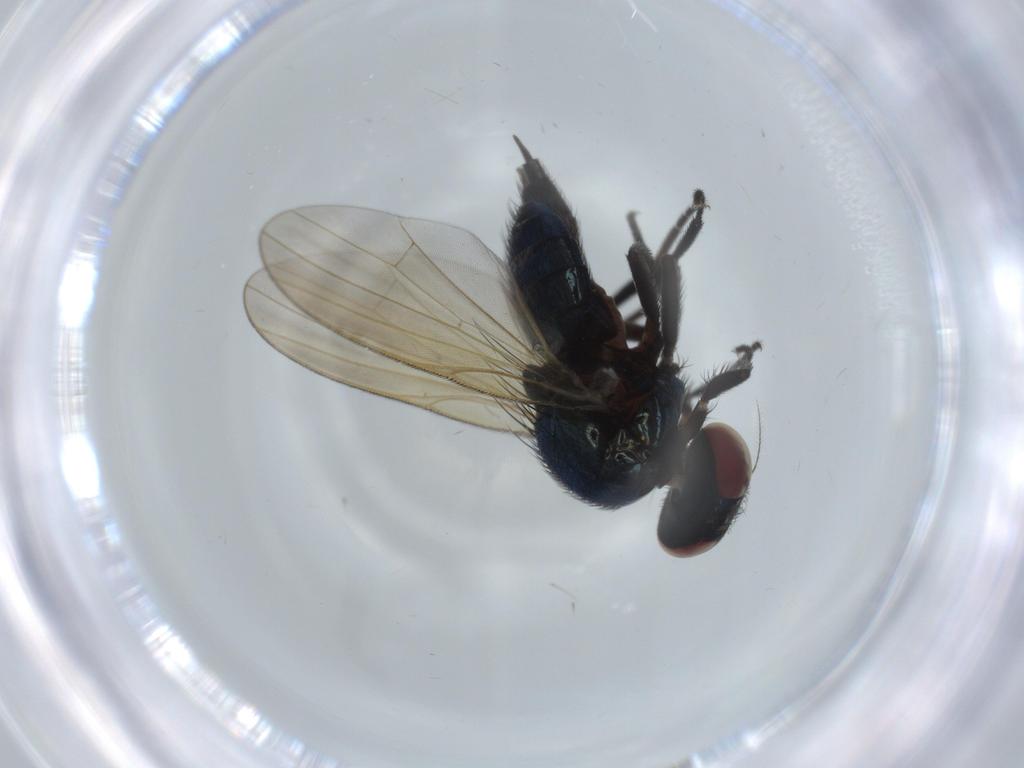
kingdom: Animalia
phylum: Arthropoda
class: Insecta
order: Diptera
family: Lonchaeidae
